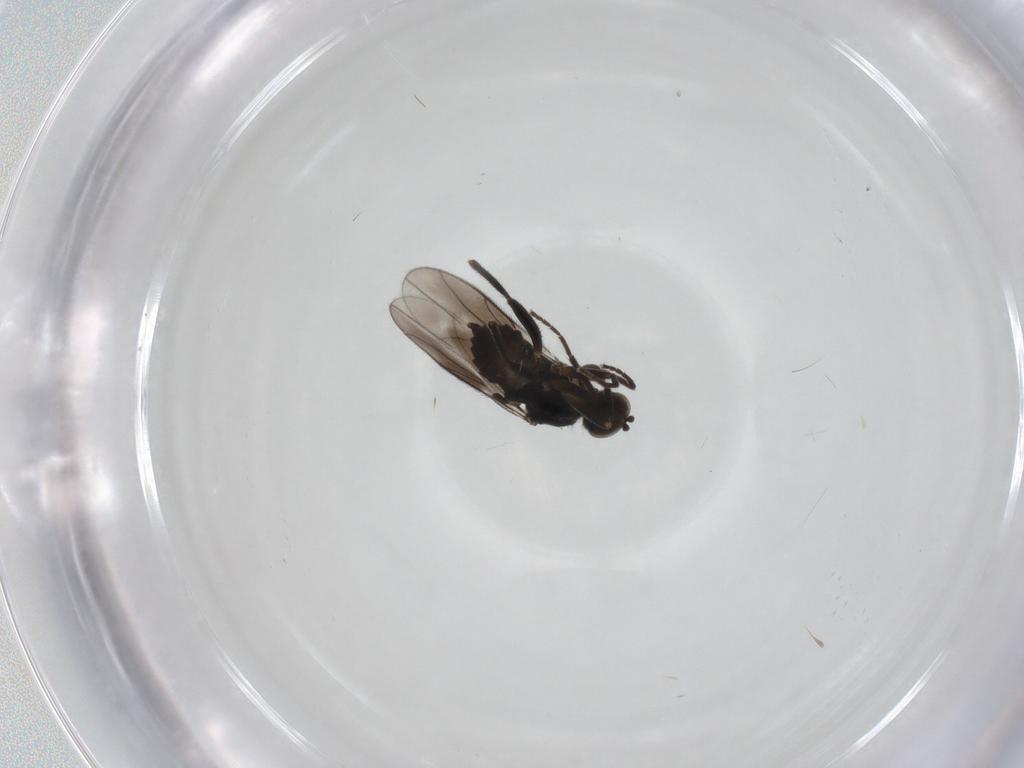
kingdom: Animalia
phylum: Arthropoda
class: Insecta
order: Diptera
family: Hybotidae
